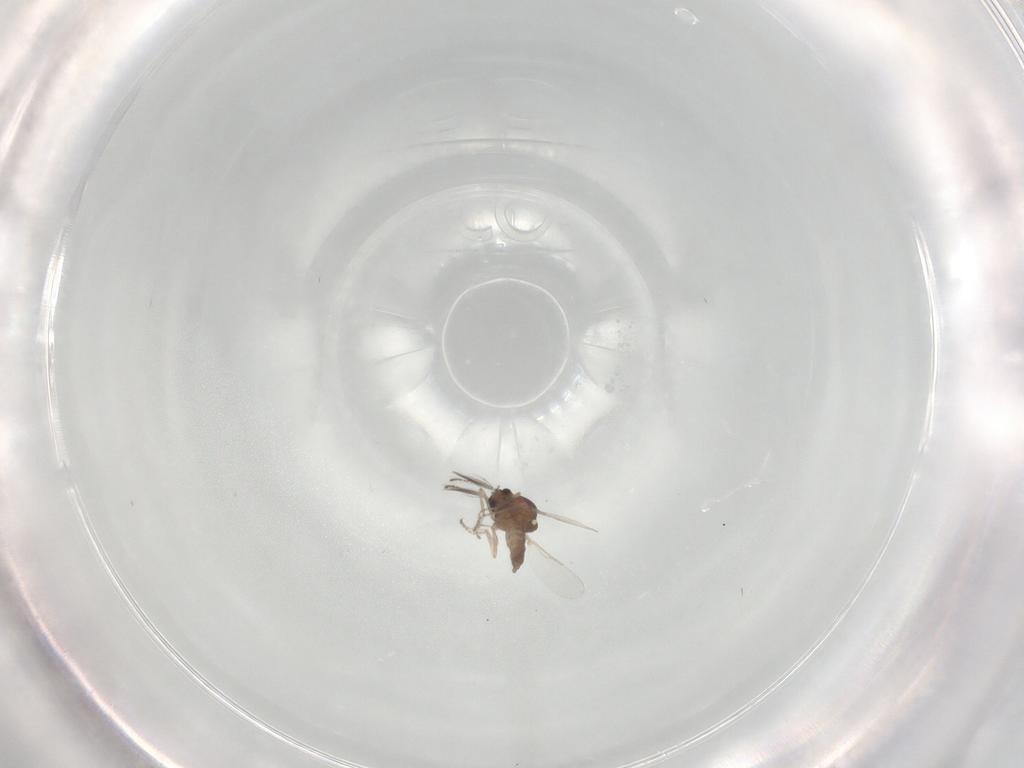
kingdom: Animalia
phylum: Arthropoda
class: Insecta
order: Diptera
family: Ceratopogonidae
